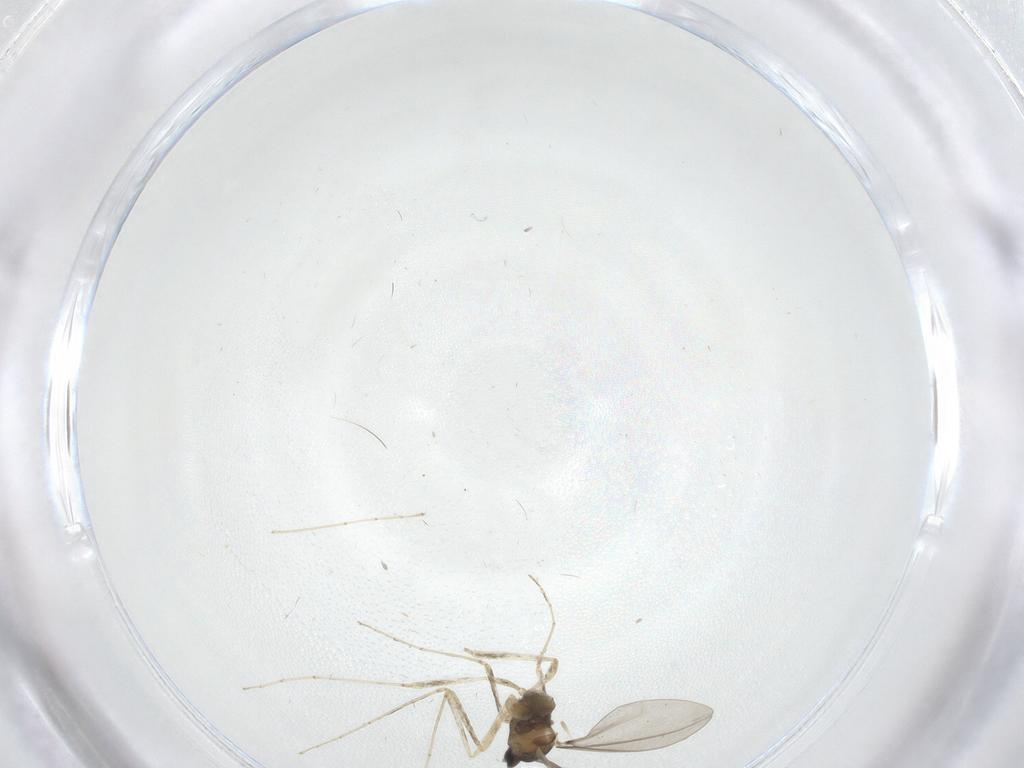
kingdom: Animalia
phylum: Arthropoda
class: Insecta
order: Diptera
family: Cecidomyiidae
